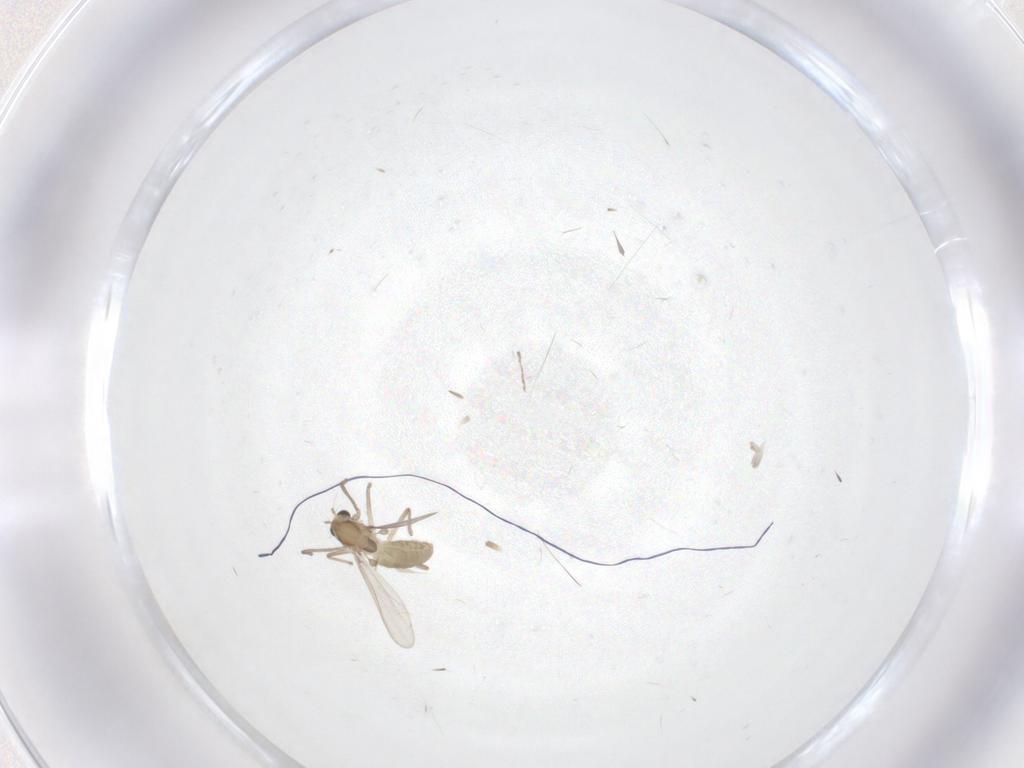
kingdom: Animalia
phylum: Arthropoda
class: Insecta
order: Diptera
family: Chironomidae
